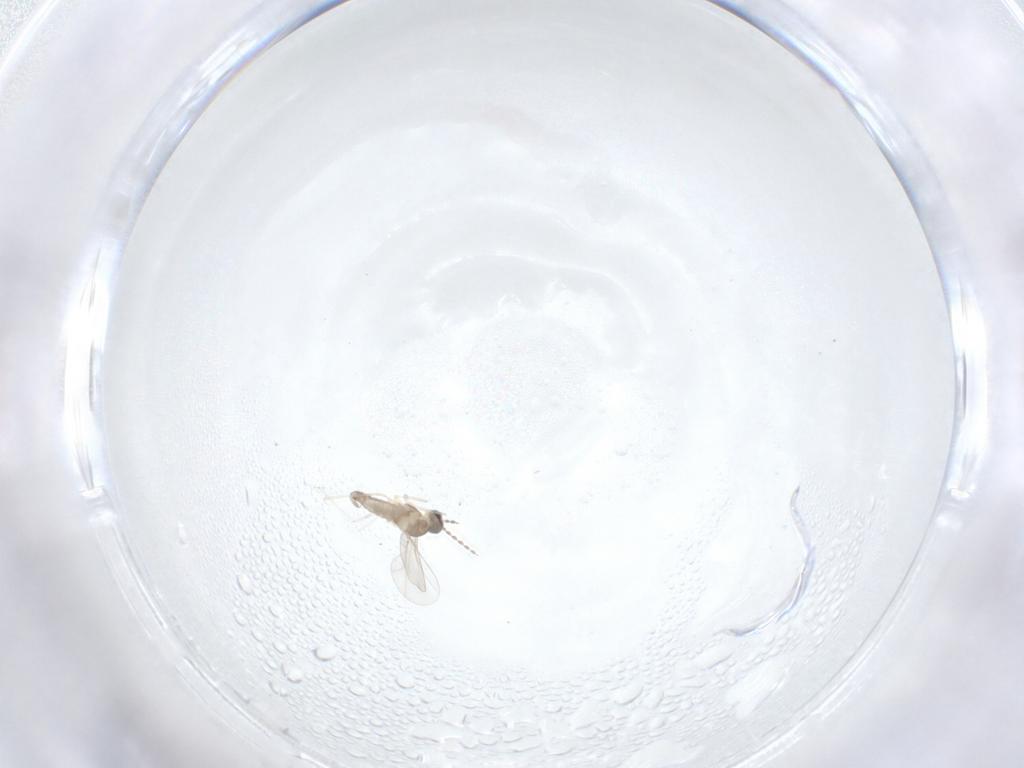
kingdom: Animalia
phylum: Arthropoda
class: Insecta
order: Diptera
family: Cecidomyiidae
